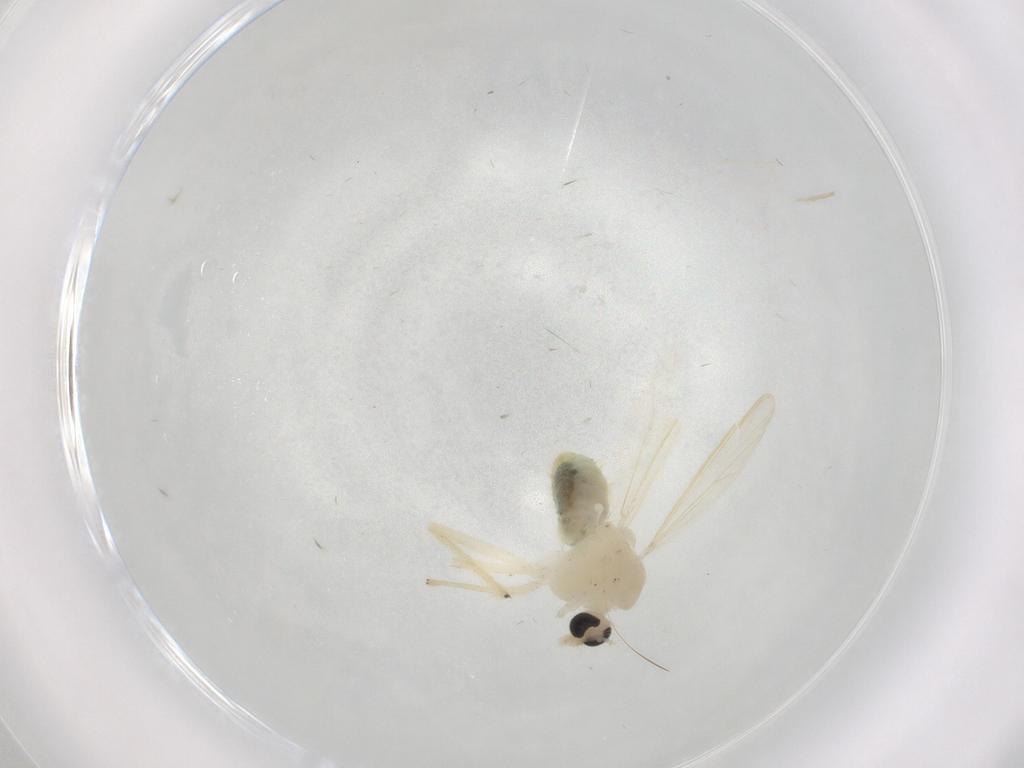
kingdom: Animalia
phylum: Arthropoda
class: Insecta
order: Diptera
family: Chironomidae
